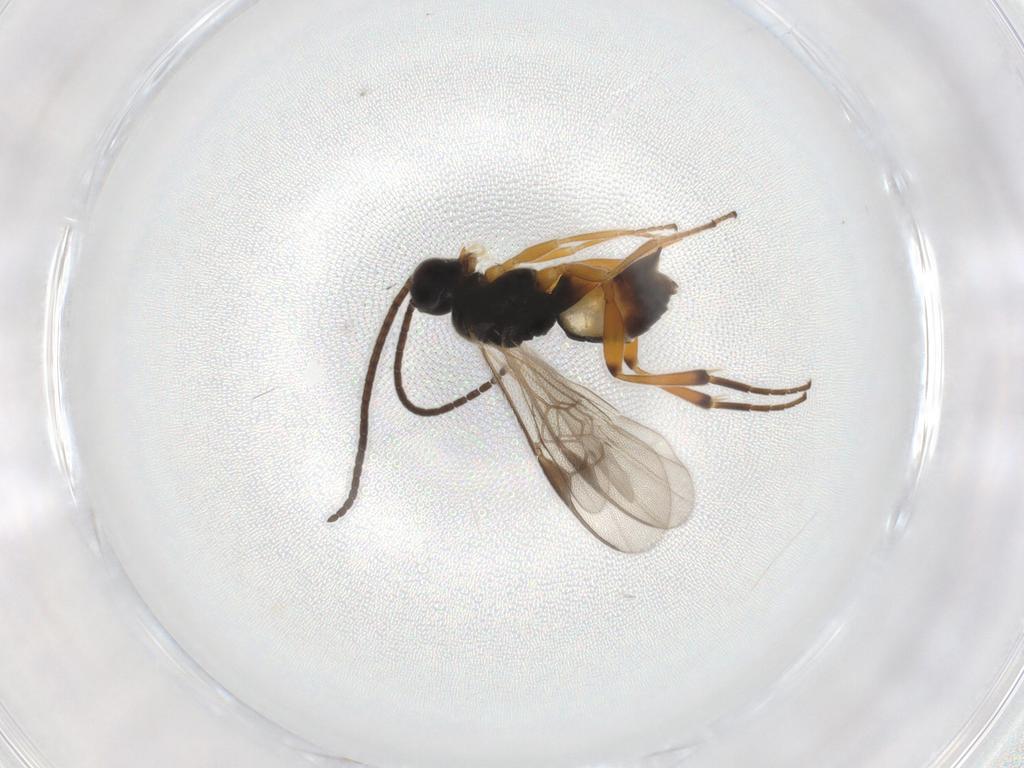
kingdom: Animalia
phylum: Arthropoda
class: Insecta
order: Hymenoptera
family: Braconidae
